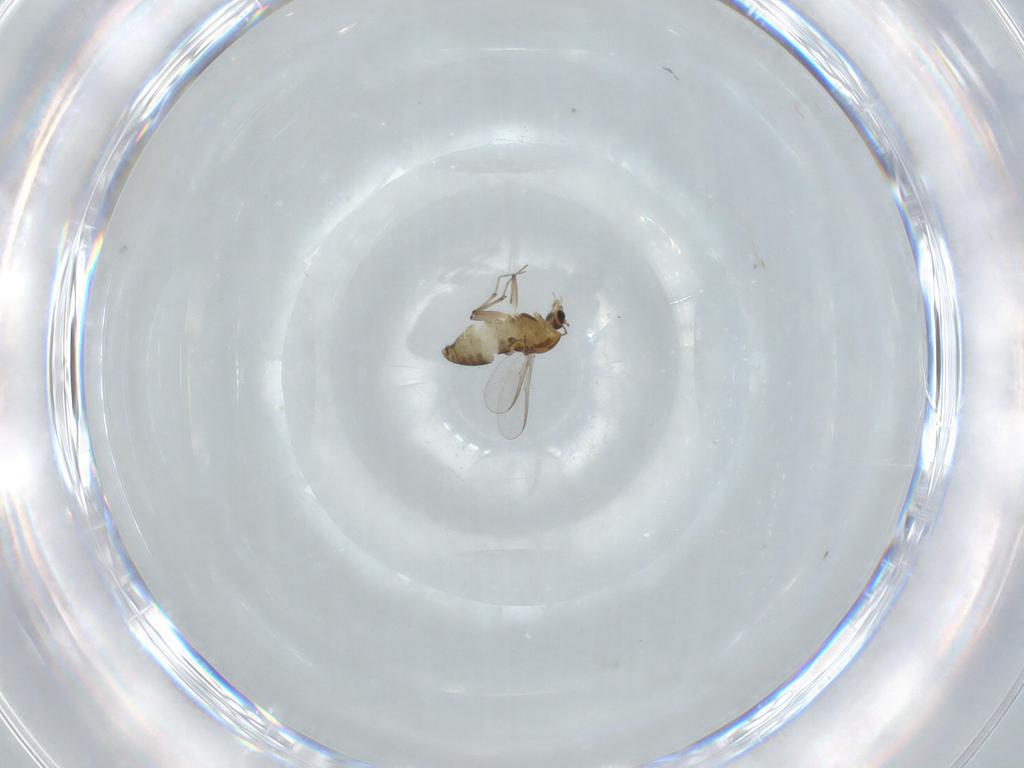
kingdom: Animalia
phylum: Arthropoda
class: Insecta
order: Diptera
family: Chironomidae
